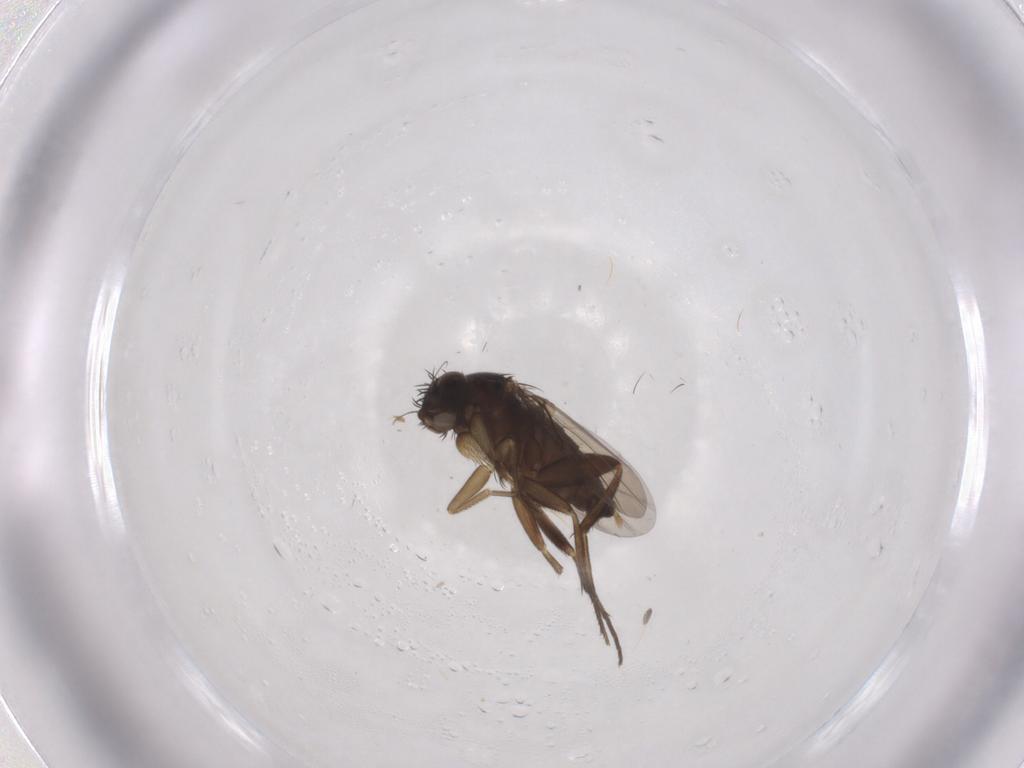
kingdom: Animalia
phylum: Arthropoda
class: Insecta
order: Diptera
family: Phoridae
